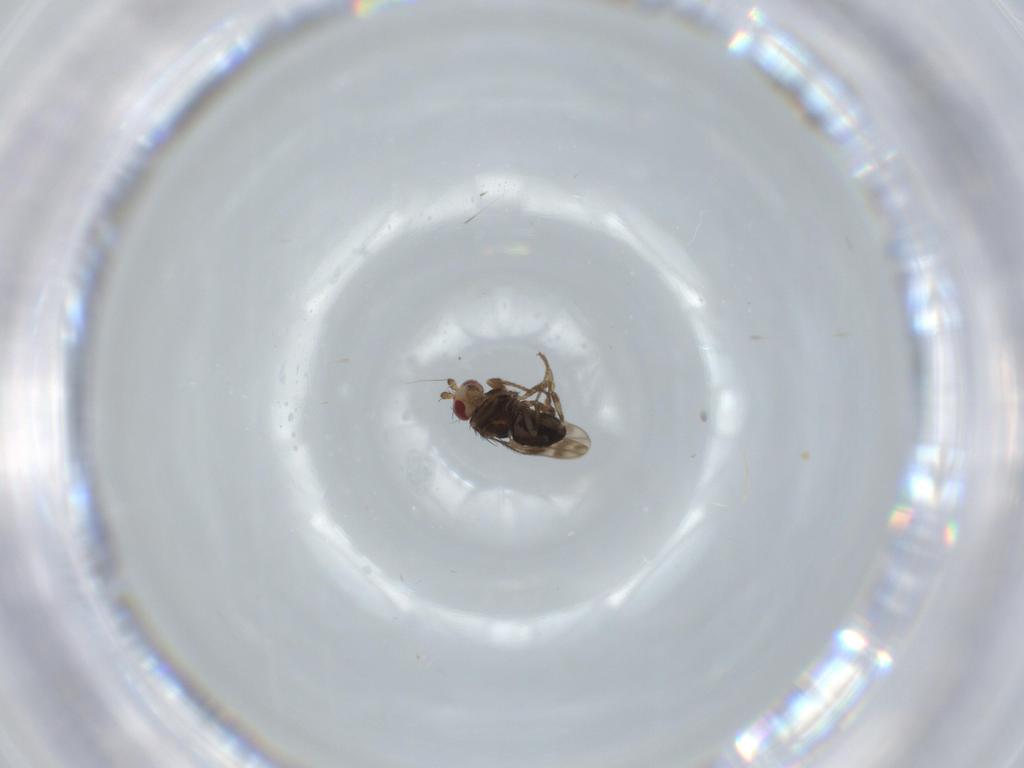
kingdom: Animalia
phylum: Arthropoda
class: Insecta
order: Diptera
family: Sphaeroceridae
